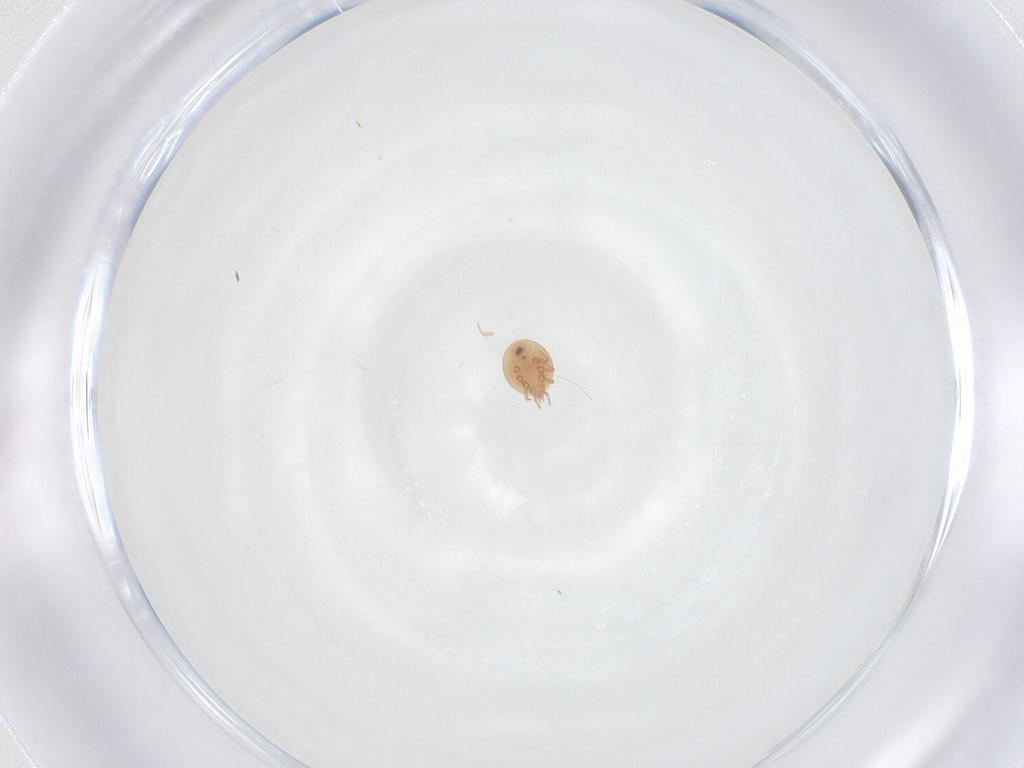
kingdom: Animalia
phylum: Arthropoda
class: Arachnida
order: Mesostigmata
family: Trematuridae
